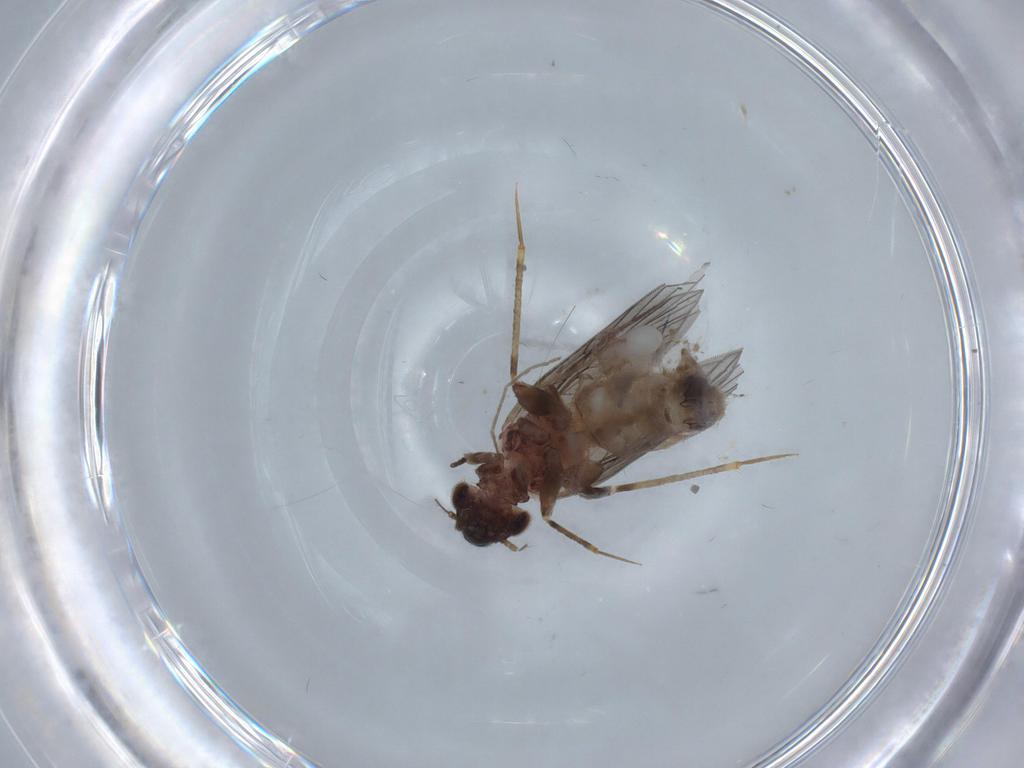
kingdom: Animalia
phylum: Arthropoda
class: Insecta
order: Psocodea
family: Lepidopsocidae
